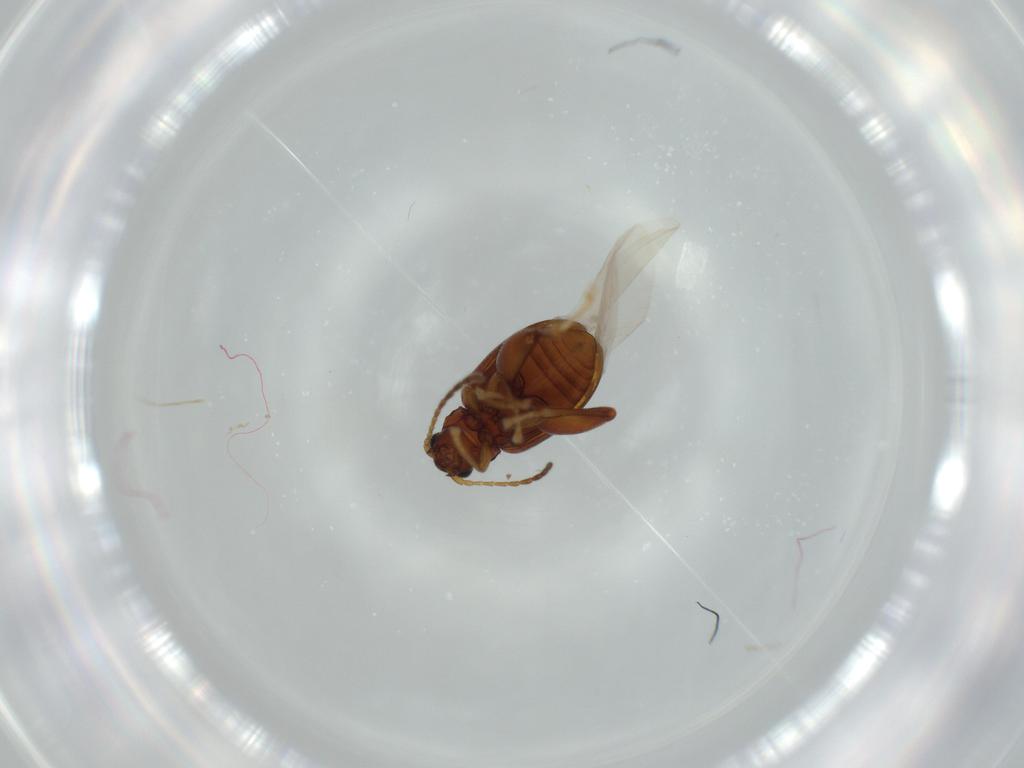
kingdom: Animalia
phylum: Arthropoda
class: Insecta
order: Coleoptera
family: Chrysomelidae
